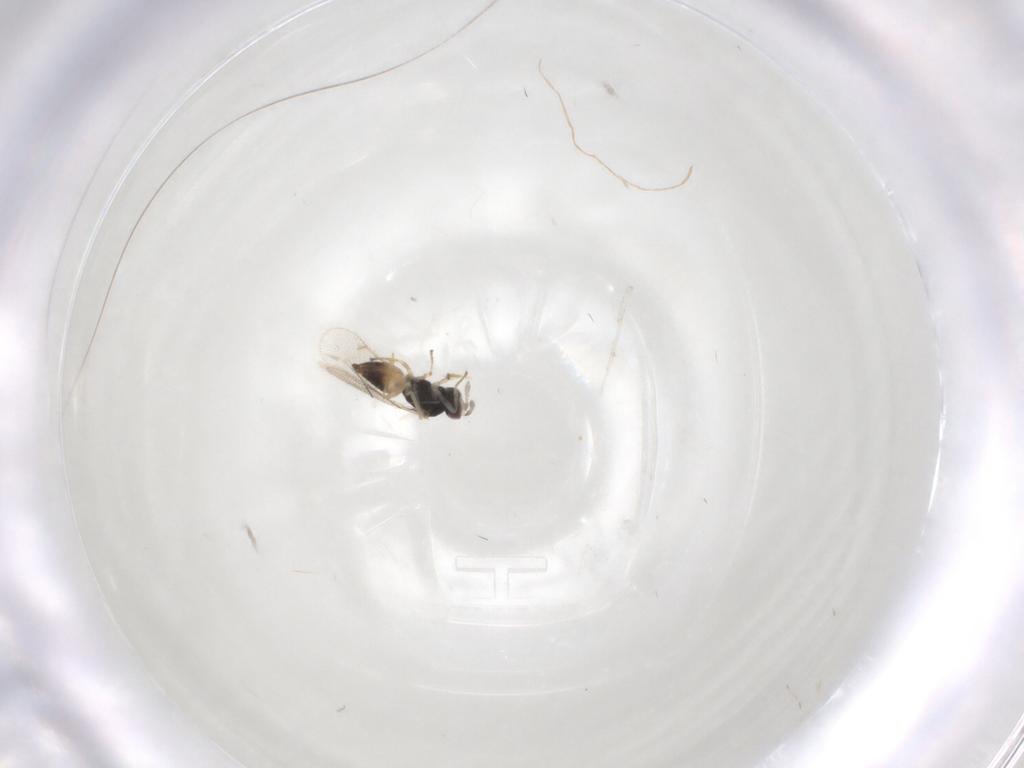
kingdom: Animalia
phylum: Arthropoda
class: Insecta
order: Hymenoptera
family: Eulophidae
